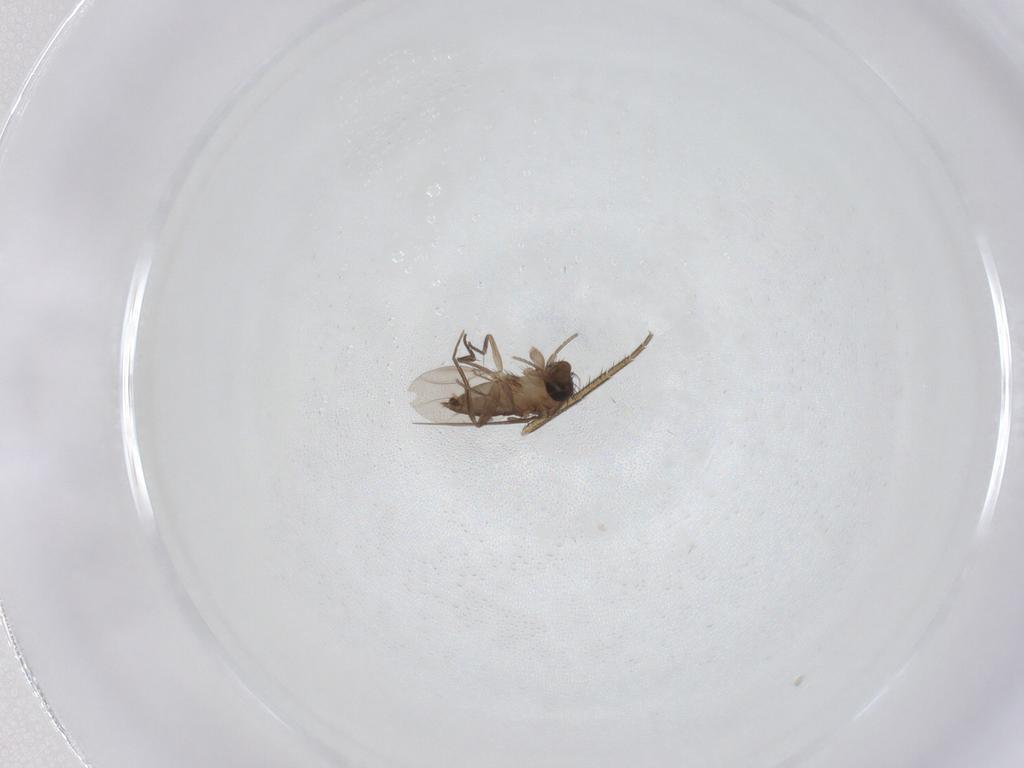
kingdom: Animalia
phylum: Arthropoda
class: Insecta
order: Diptera
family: Phoridae
